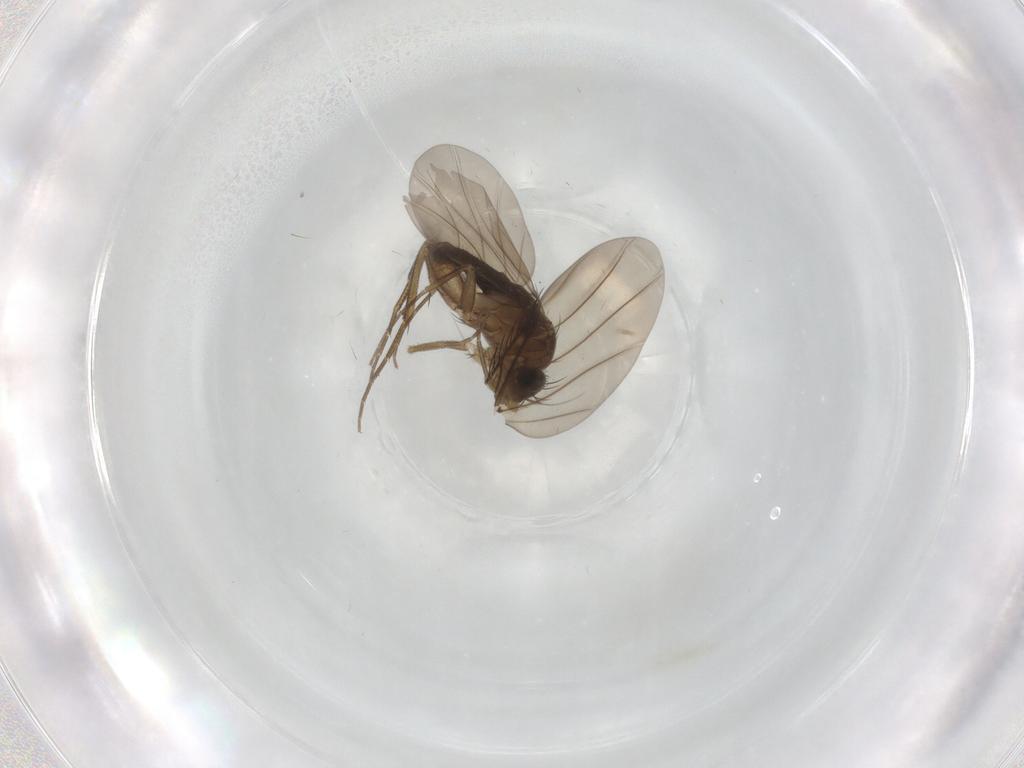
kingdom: Animalia
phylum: Arthropoda
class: Insecta
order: Diptera
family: Phoridae
